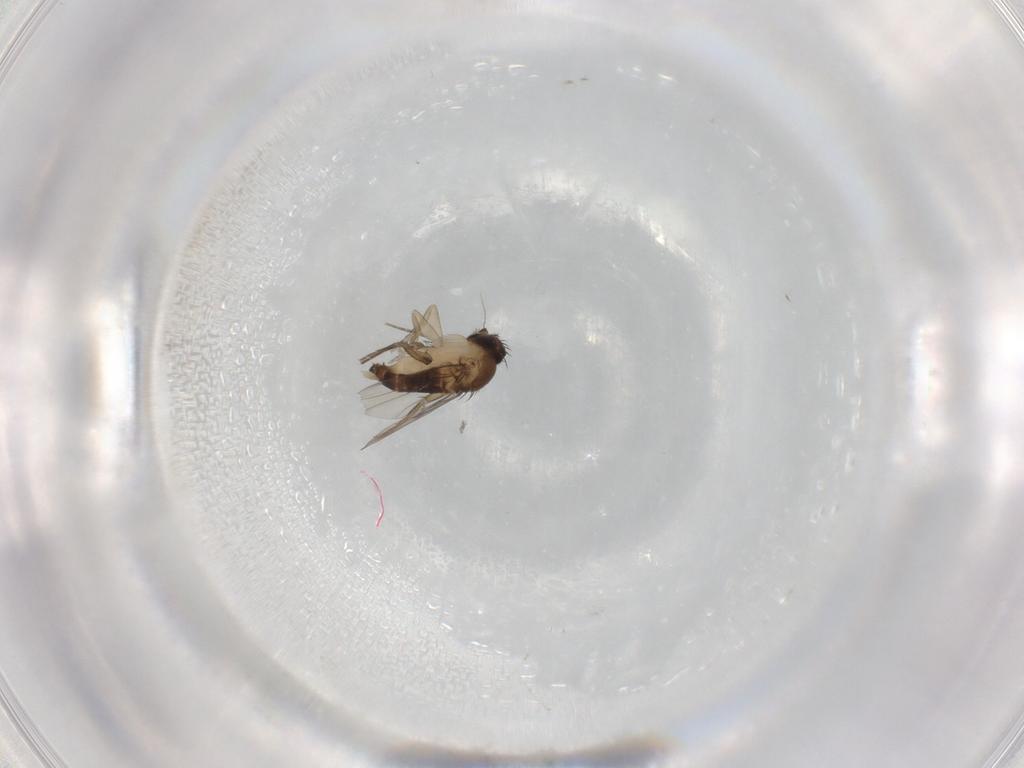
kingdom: Animalia
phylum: Arthropoda
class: Insecta
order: Diptera
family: Cecidomyiidae
